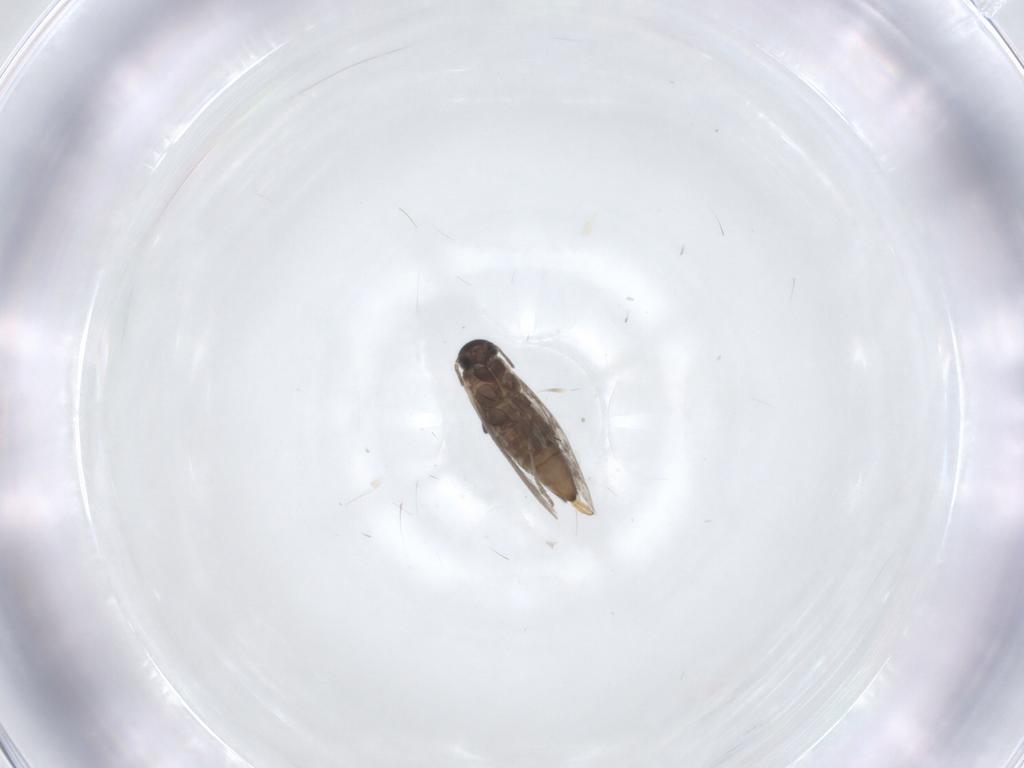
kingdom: Animalia
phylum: Arthropoda
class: Insecta
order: Lepidoptera
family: Heliozelidae
